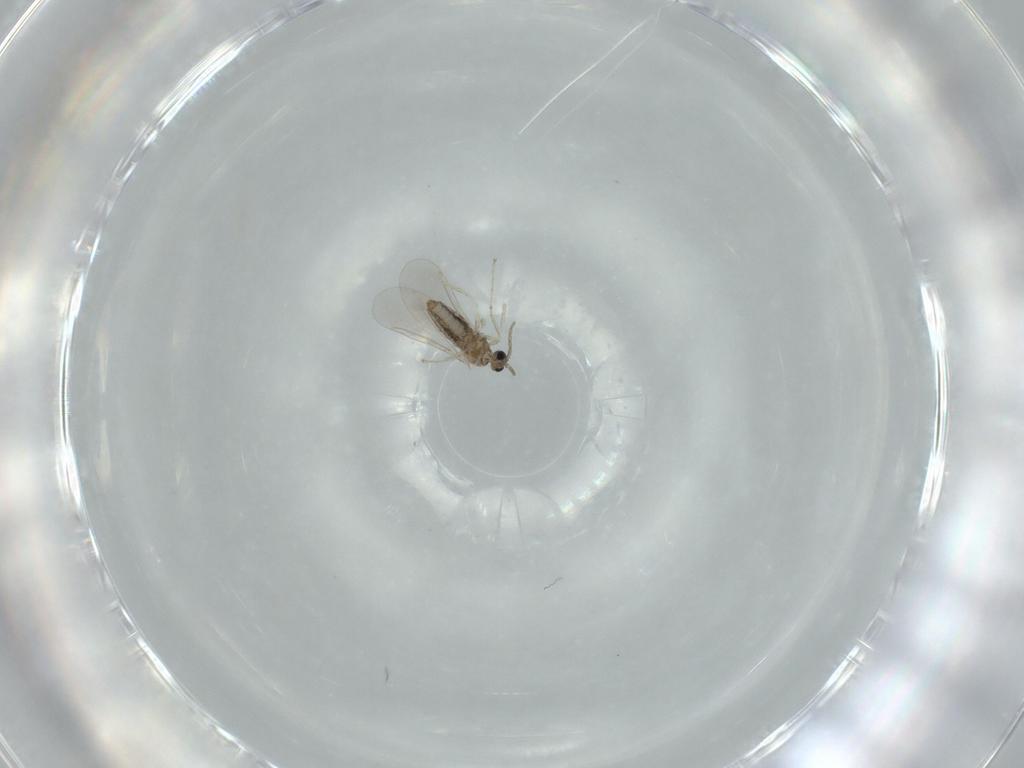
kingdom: Animalia
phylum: Arthropoda
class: Insecta
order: Diptera
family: Cecidomyiidae
